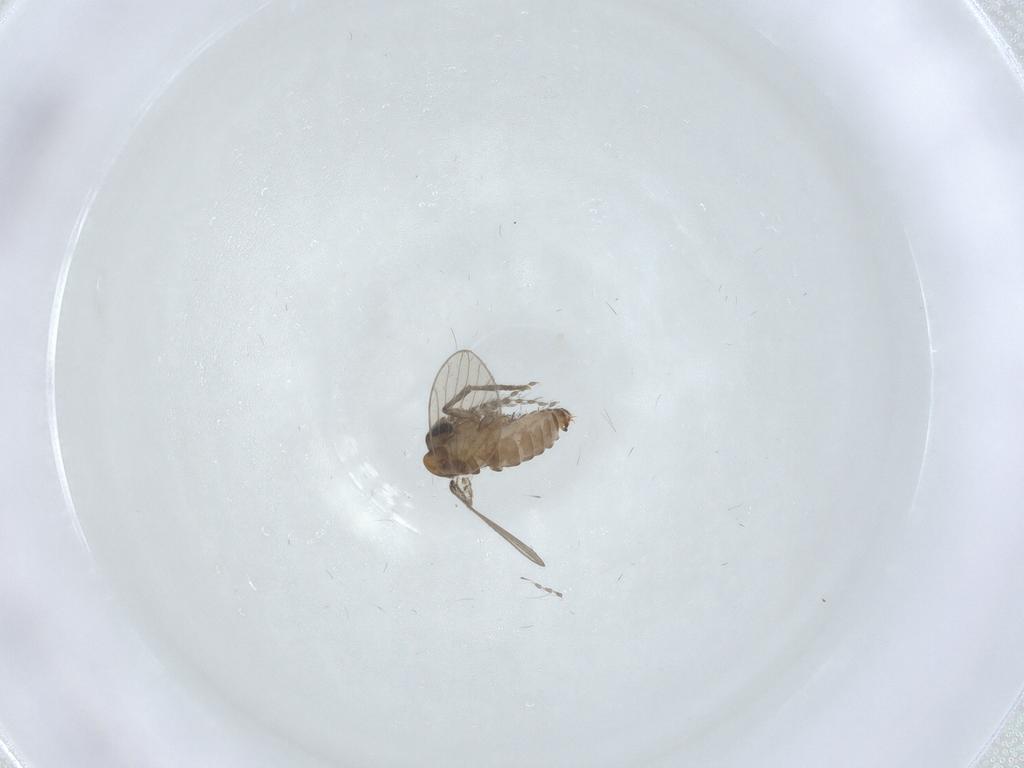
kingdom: Animalia
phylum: Arthropoda
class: Insecta
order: Diptera
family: Psychodidae
